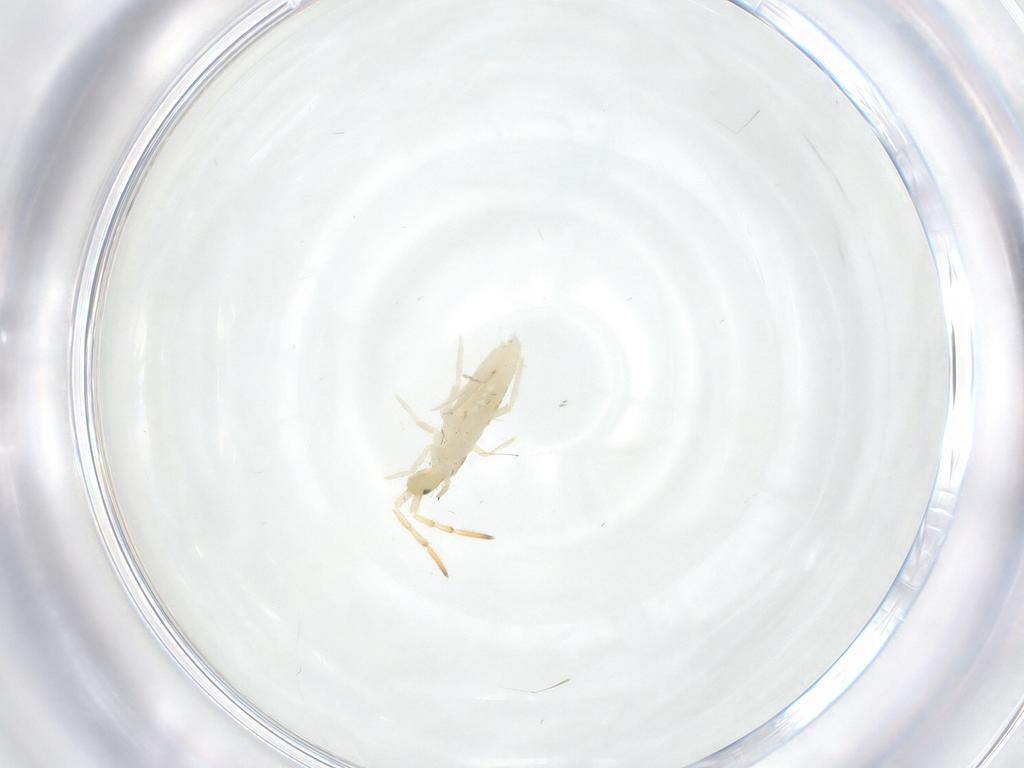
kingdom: Animalia
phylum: Arthropoda
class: Collembola
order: Entomobryomorpha
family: Entomobryidae
